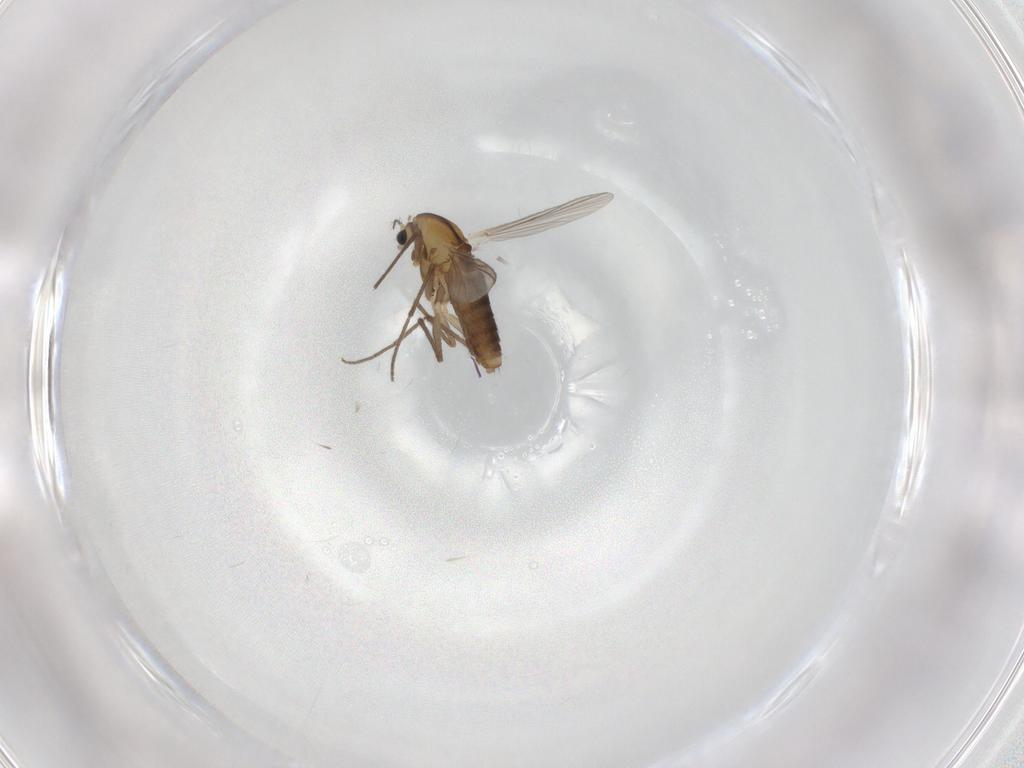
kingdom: Animalia
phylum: Arthropoda
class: Insecta
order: Diptera
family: Chironomidae
